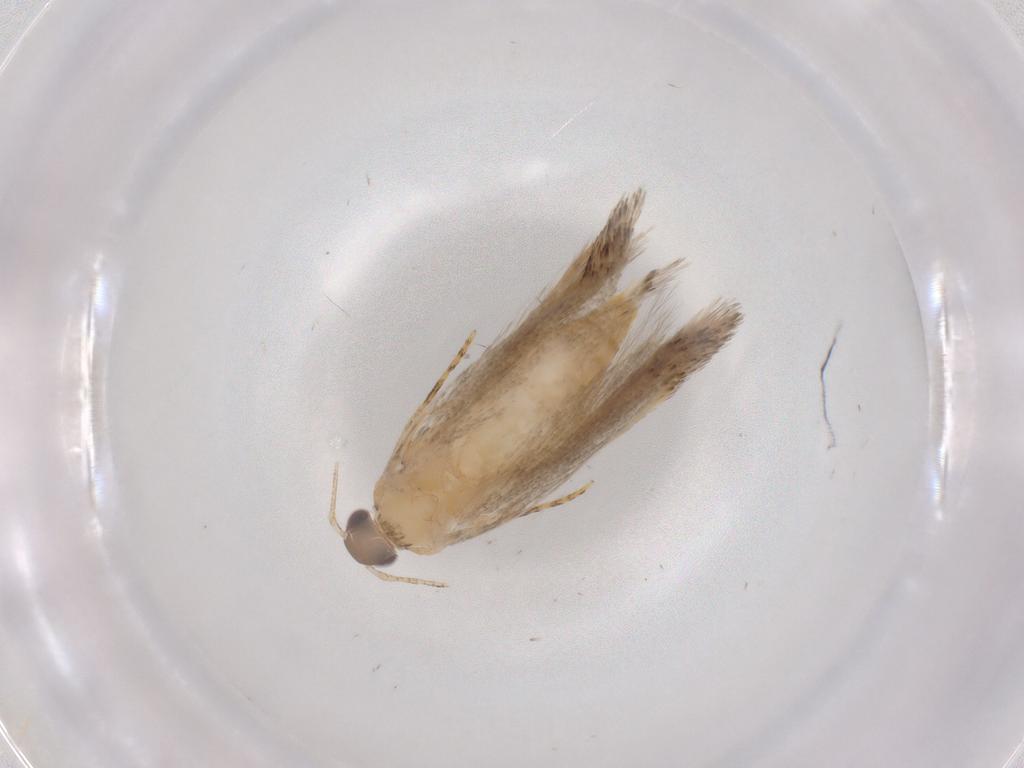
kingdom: Animalia
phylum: Arthropoda
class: Insecta
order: Lepidoptera
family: Autostichidae
